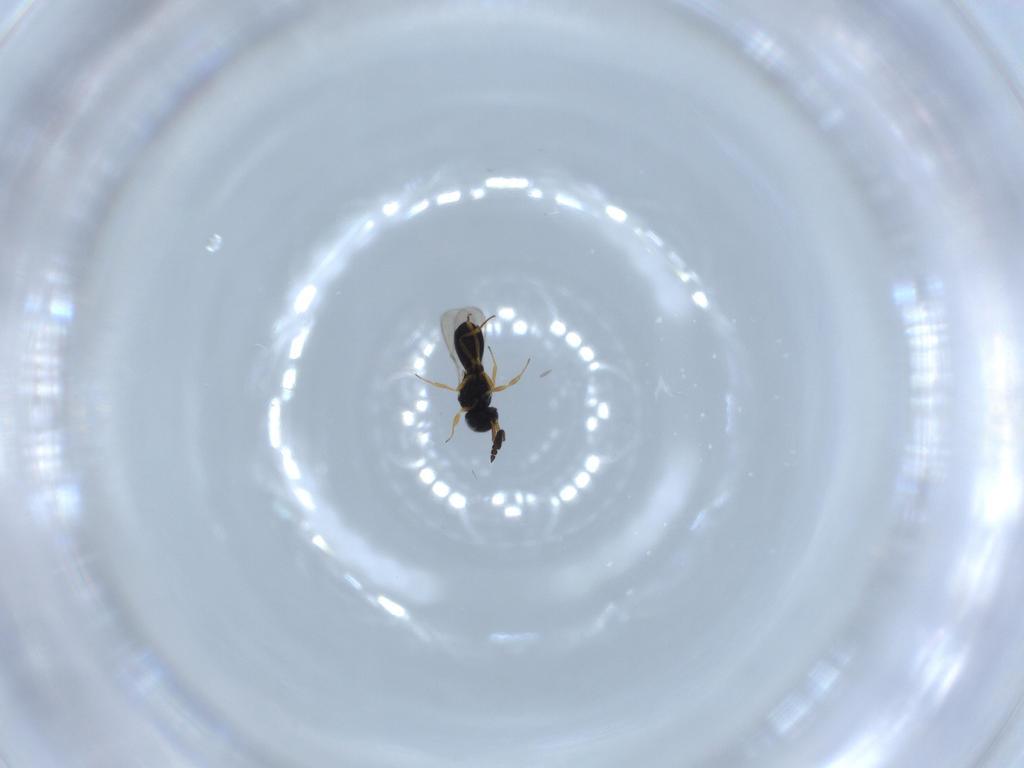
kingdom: Animalia
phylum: Arthropoda
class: Insecta
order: Hymenoptera
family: Scelionidae
